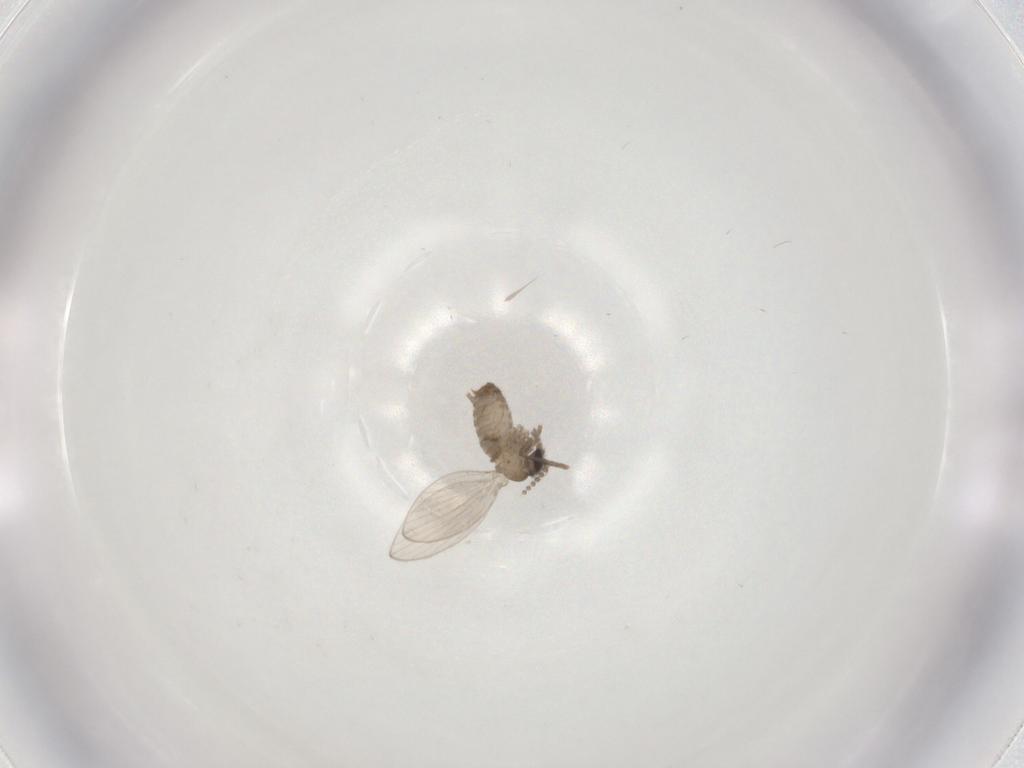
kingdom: Animalia
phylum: Arthropoda
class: Insecta
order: Diptera
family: Psychodidae
